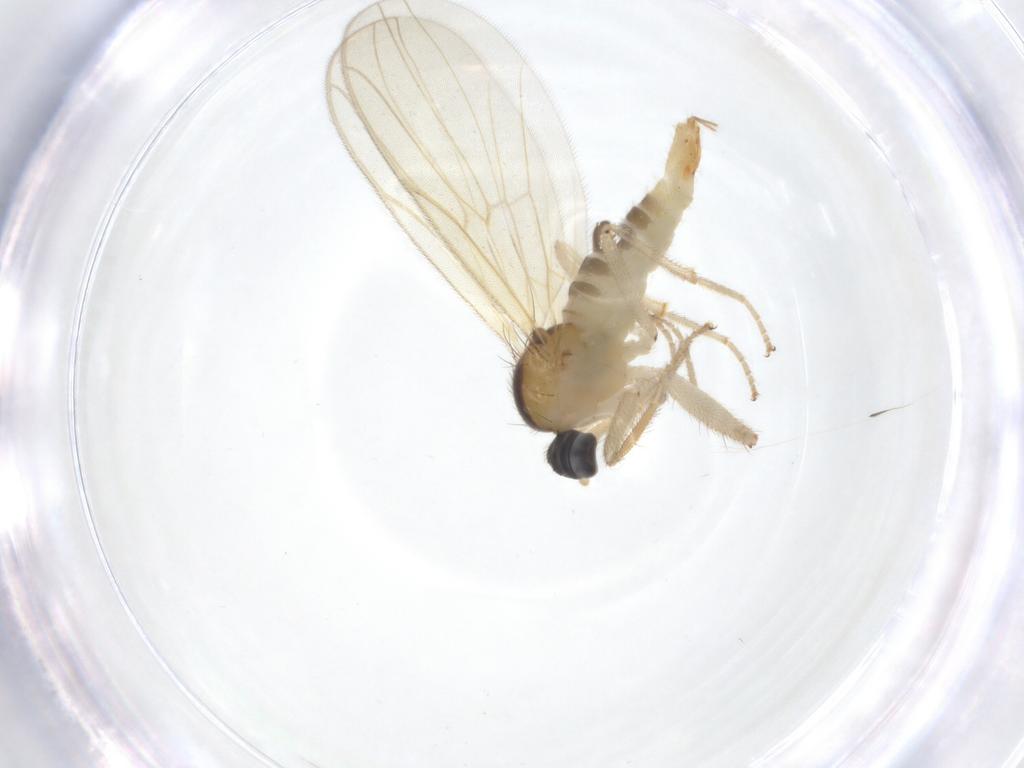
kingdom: Animalia
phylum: Arthropoda
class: Insecta
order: Diptera
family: Hybotidae
